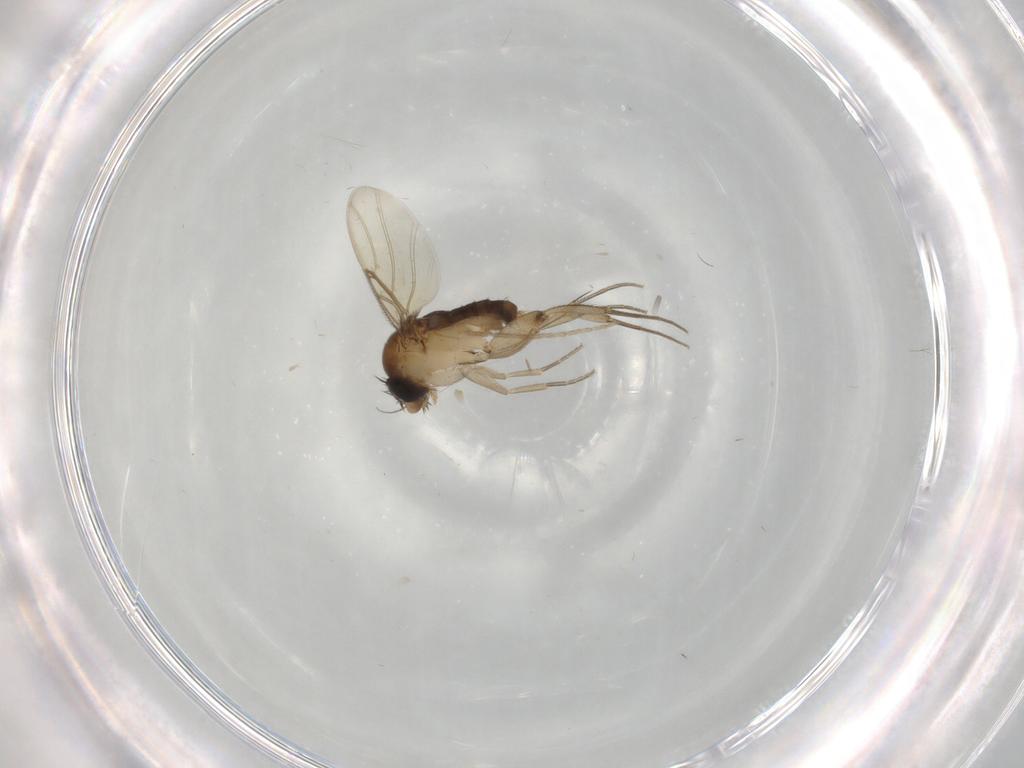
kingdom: Animalia
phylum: Arthropoda
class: Insecta
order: Diptera
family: Phoridae
